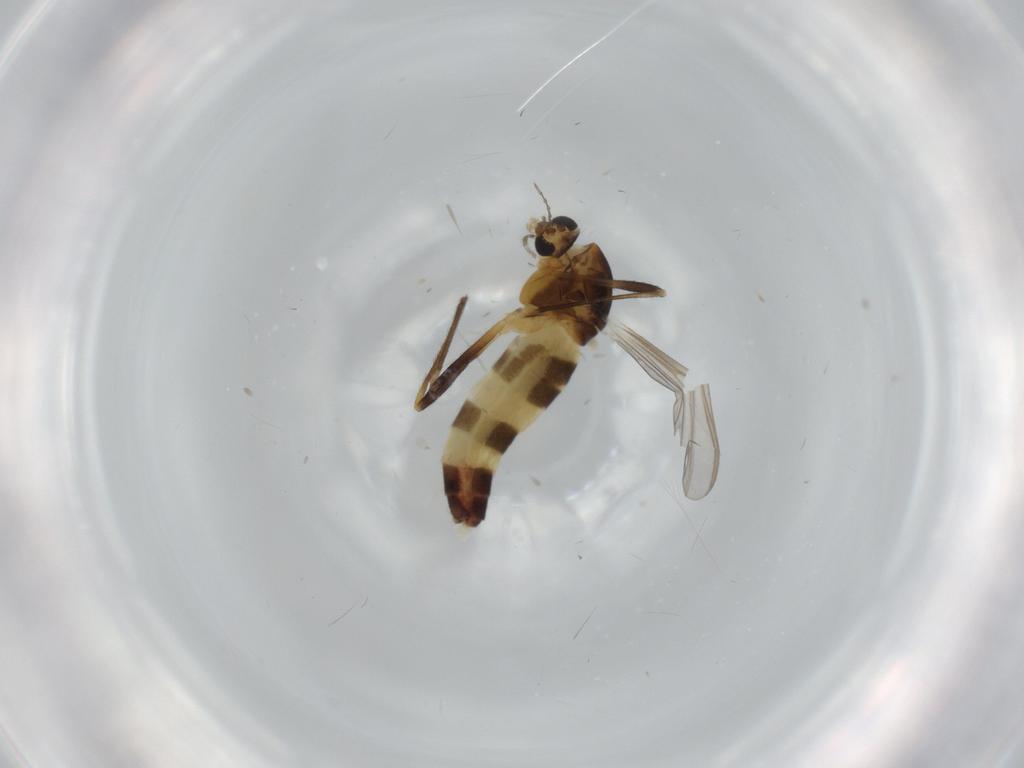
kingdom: Animalia
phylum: Arthropoda
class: Insecta
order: Diptera
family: Chironomidae
